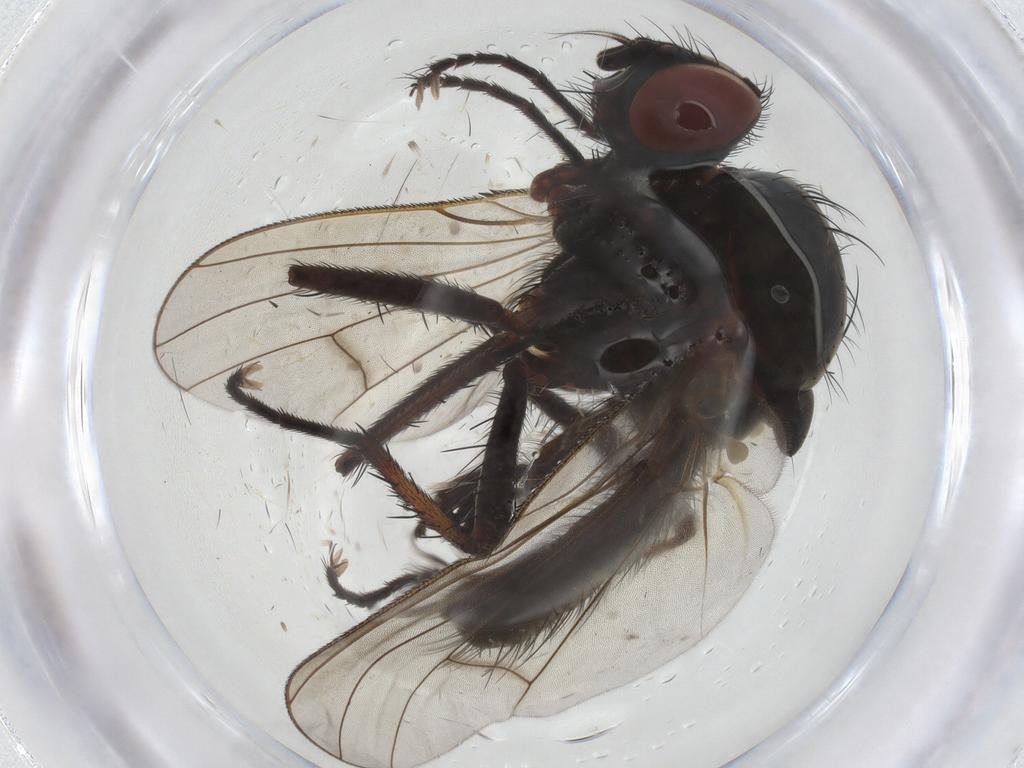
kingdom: Animalia
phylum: Arthropoda
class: Insecta
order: Diptera
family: Anthomyiidae
